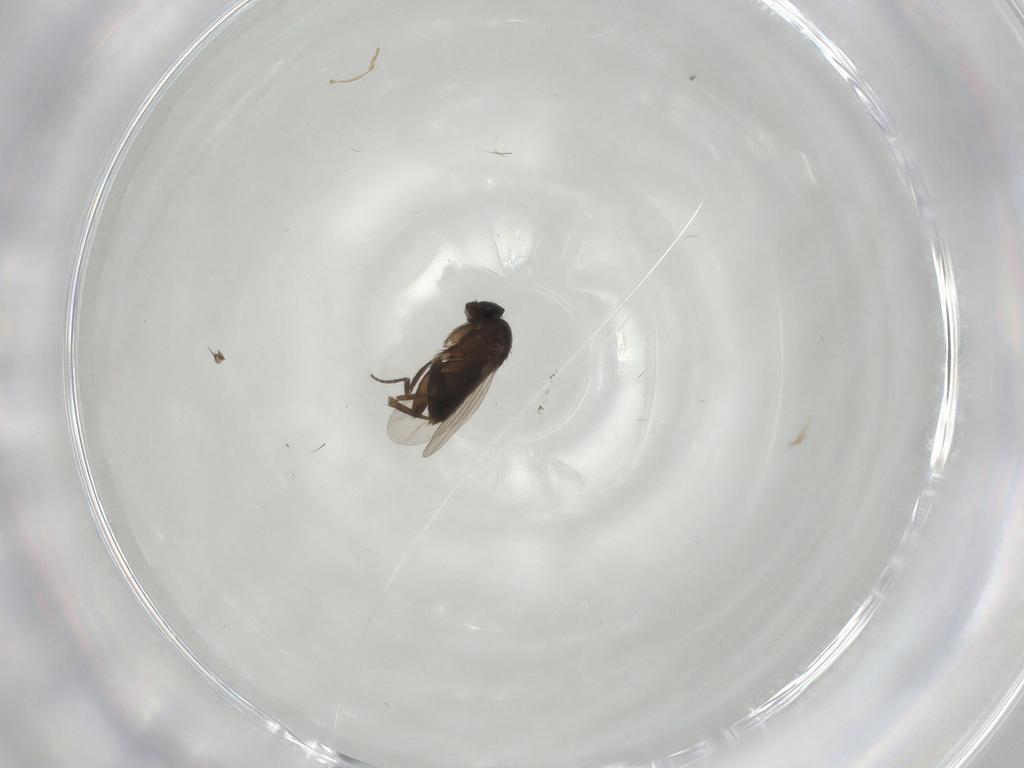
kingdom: Animalia
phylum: Arthropoda
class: Insecta
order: Diptera
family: Phoridae
